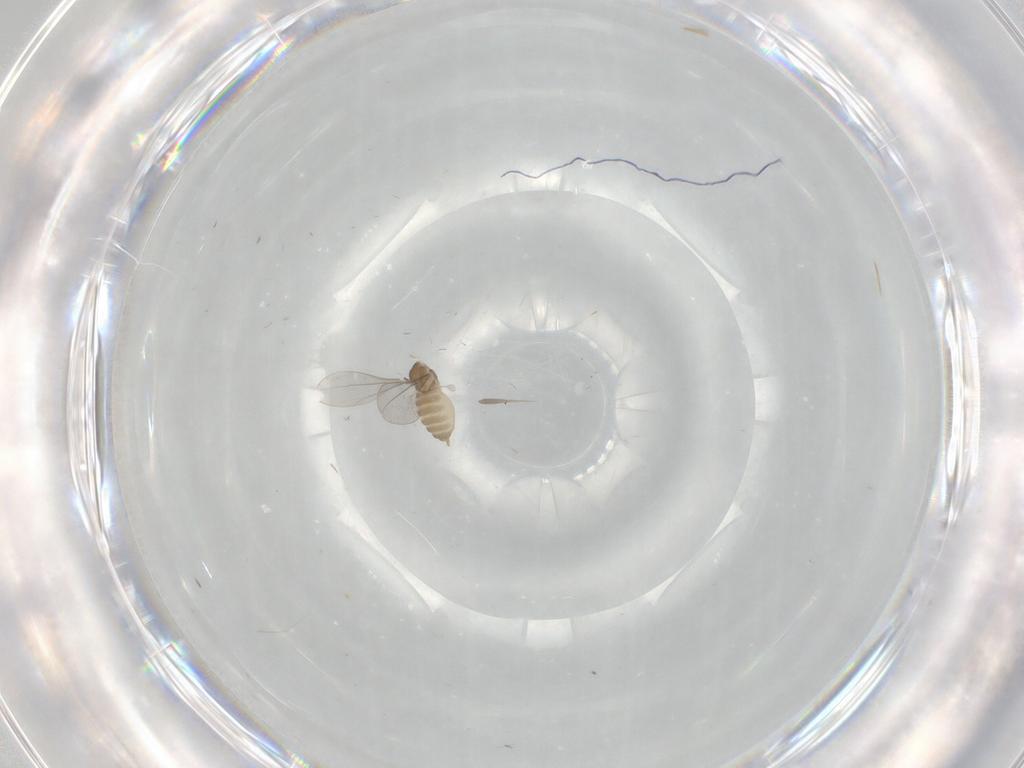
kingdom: Animalia
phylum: Arthropoda
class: Insecta
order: Diptera
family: Cecidomyiidae
